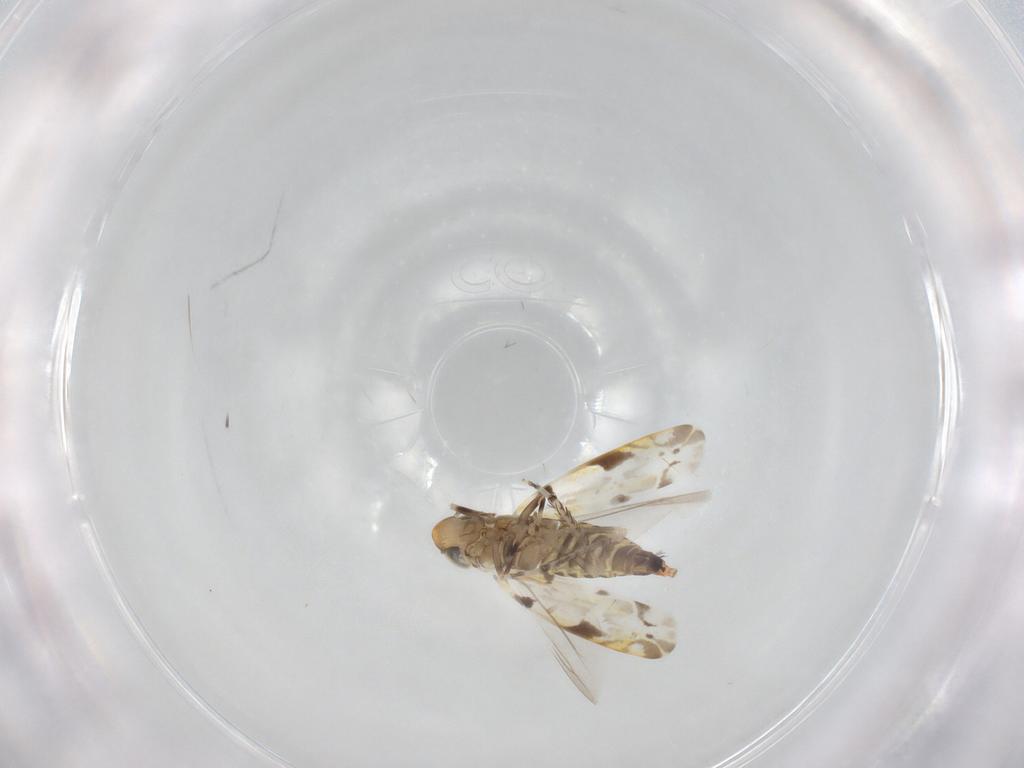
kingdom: Animalia
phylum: Arthropoda
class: Insecta
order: Hemiptera
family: Cicadellidae
